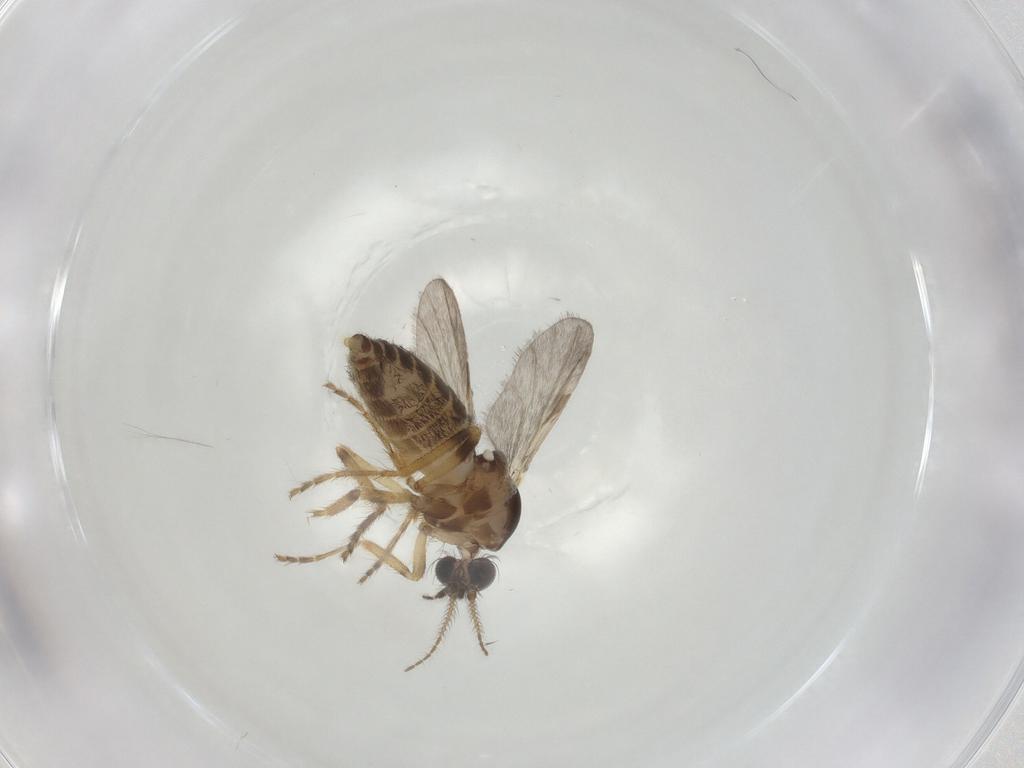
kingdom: Animalia
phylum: Arthropoda
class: Insecta
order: Diptera
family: Ceratopogonidae
